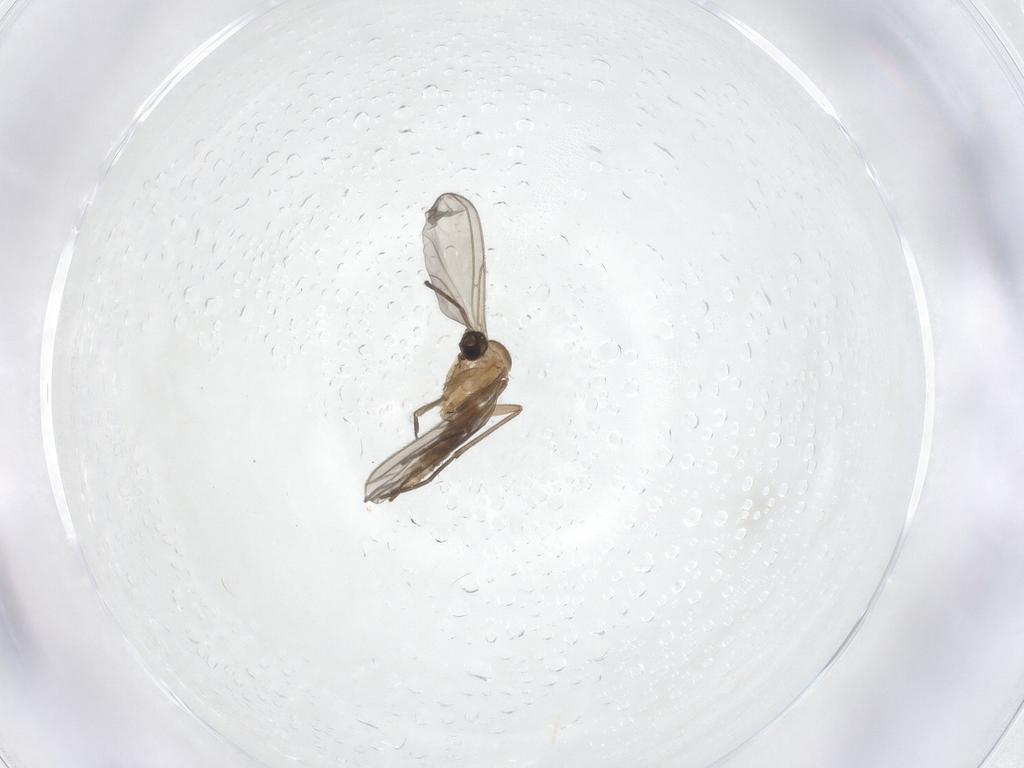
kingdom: Animalia
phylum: Arthropoda
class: Insecta
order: Diptera
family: Chironomidae
